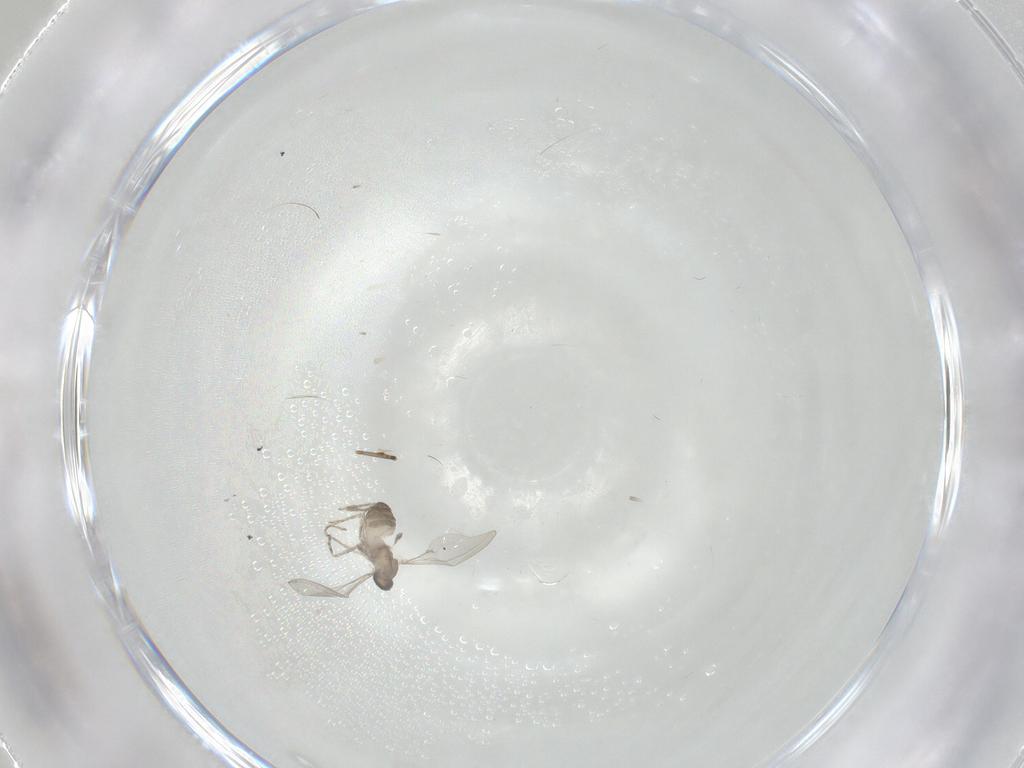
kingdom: Animalia
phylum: Arthropoda
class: Insecta
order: Diptera
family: Cecidomyiidae
